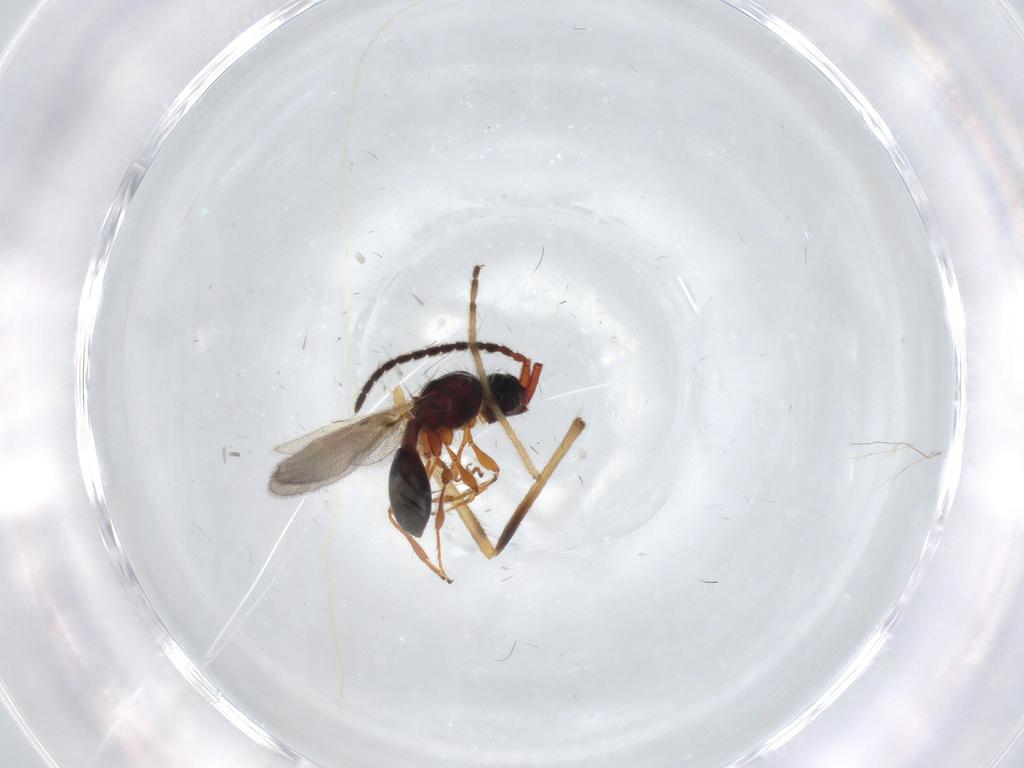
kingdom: Animalia
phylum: Arthropoda
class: Insecta
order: Hymenoptera
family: Diapriidae
